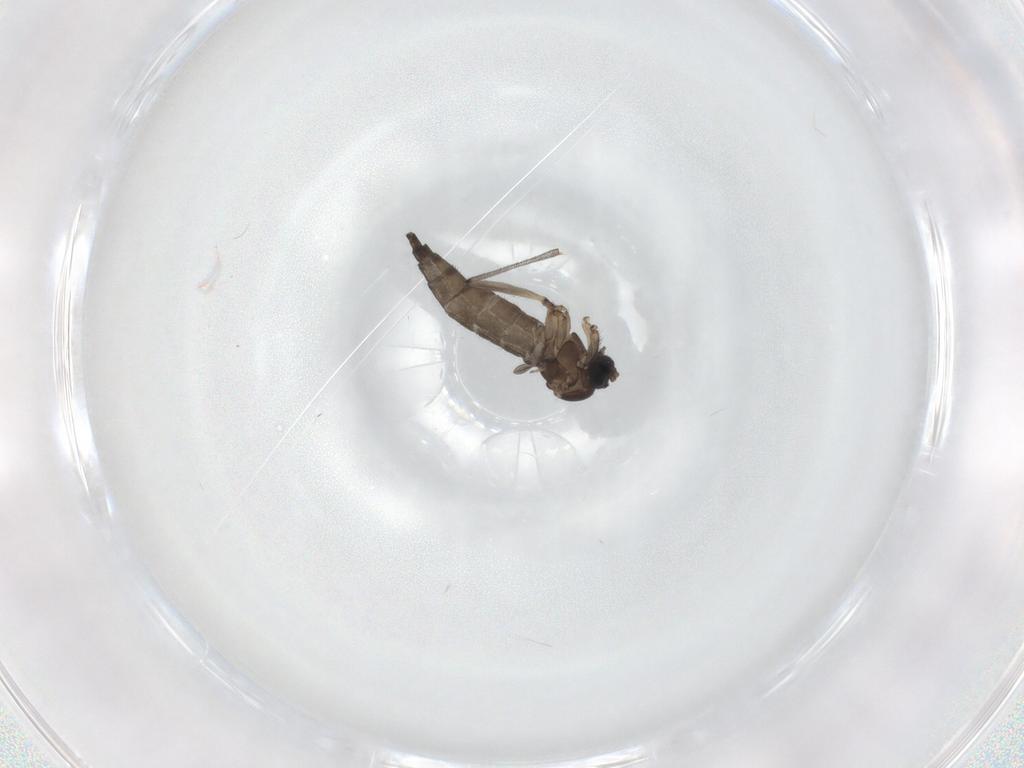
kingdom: Animalia
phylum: Arthropoda
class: Insecta
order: Diptera
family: Sciaridae
